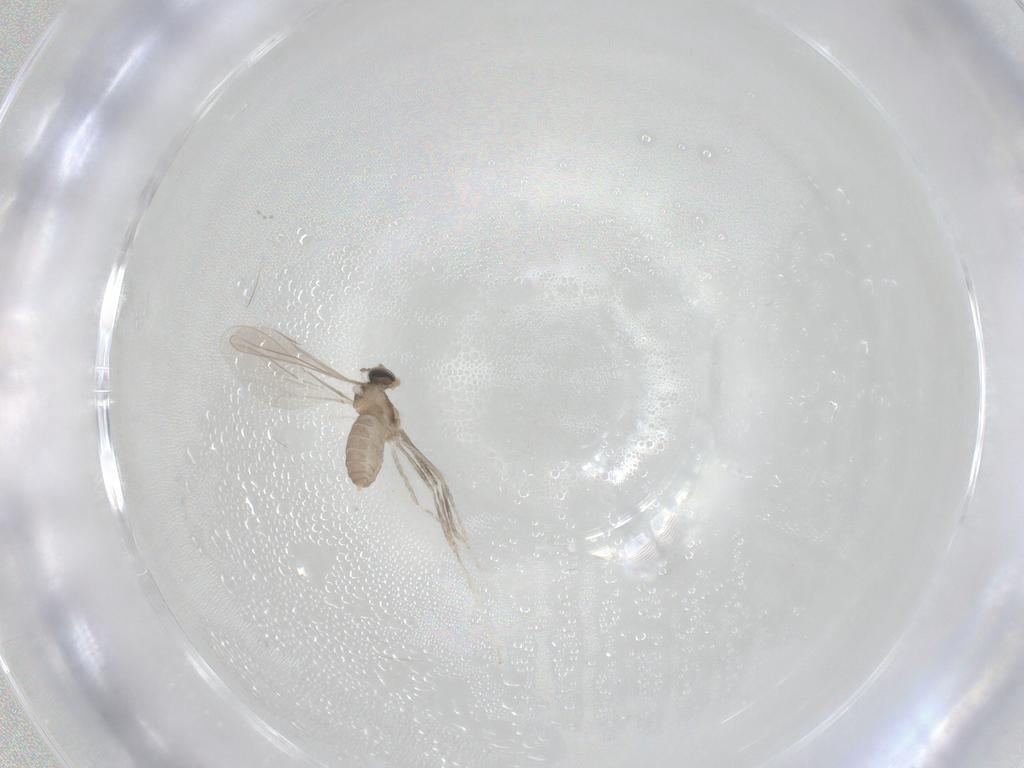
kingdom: Animalia
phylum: Arthropoda
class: Insecta
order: Diptera
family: Cecidomyiidae
